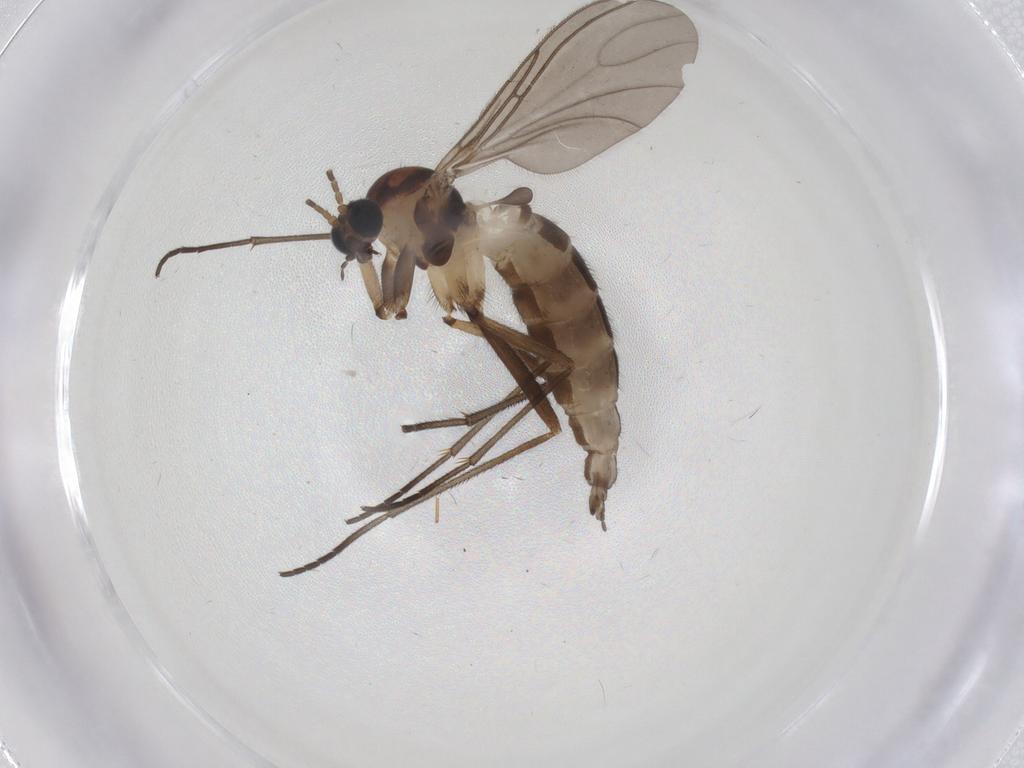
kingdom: Animalia
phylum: Arthropoda
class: Insecta
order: Diptera
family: Sciaridae
